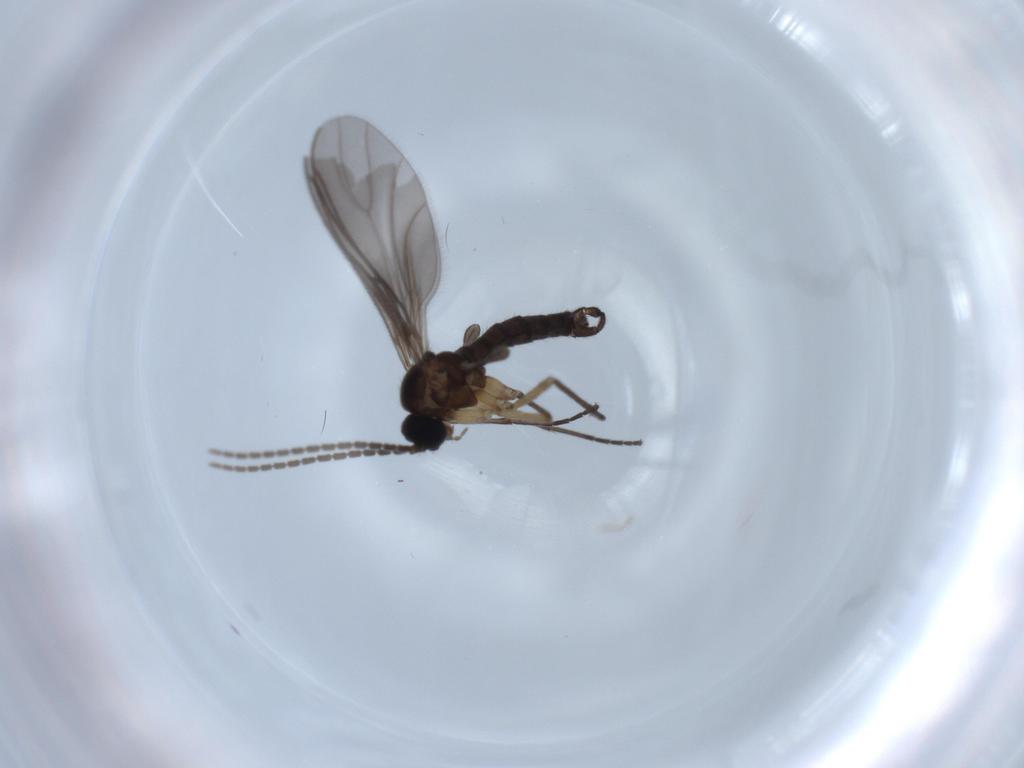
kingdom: Animalia
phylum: Arthropoda
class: Insecta
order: Diptera
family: Sciaridae
